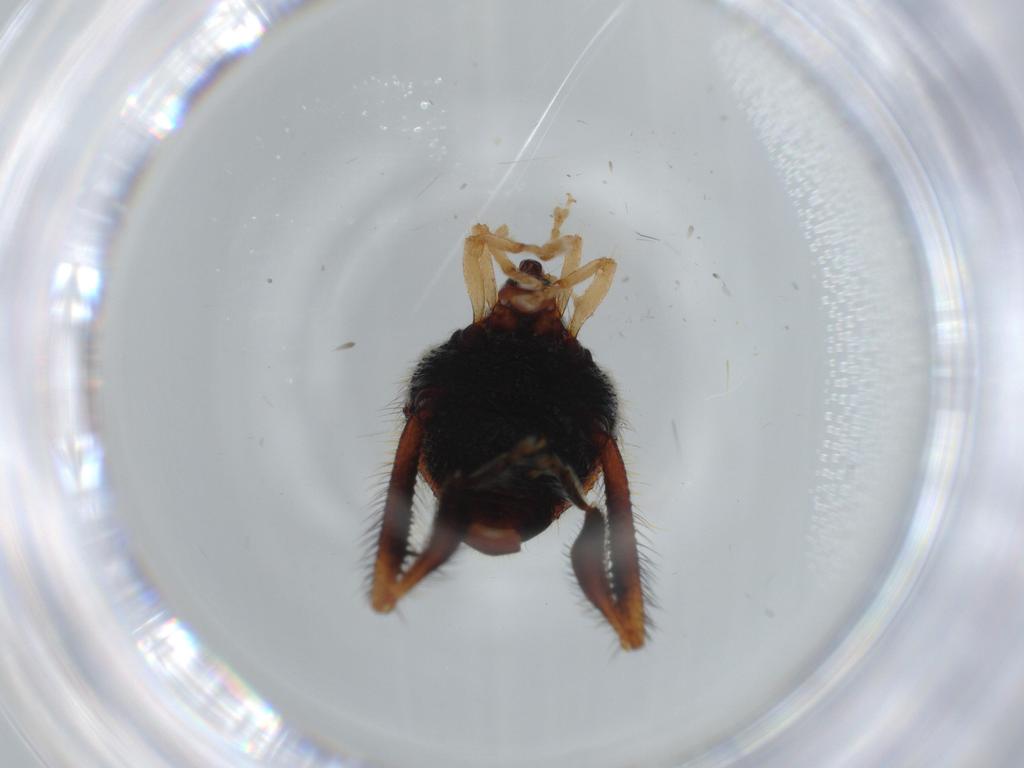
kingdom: Animalia
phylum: Arthropoda
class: Insecta
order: Coleoptera
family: Curculionidae
